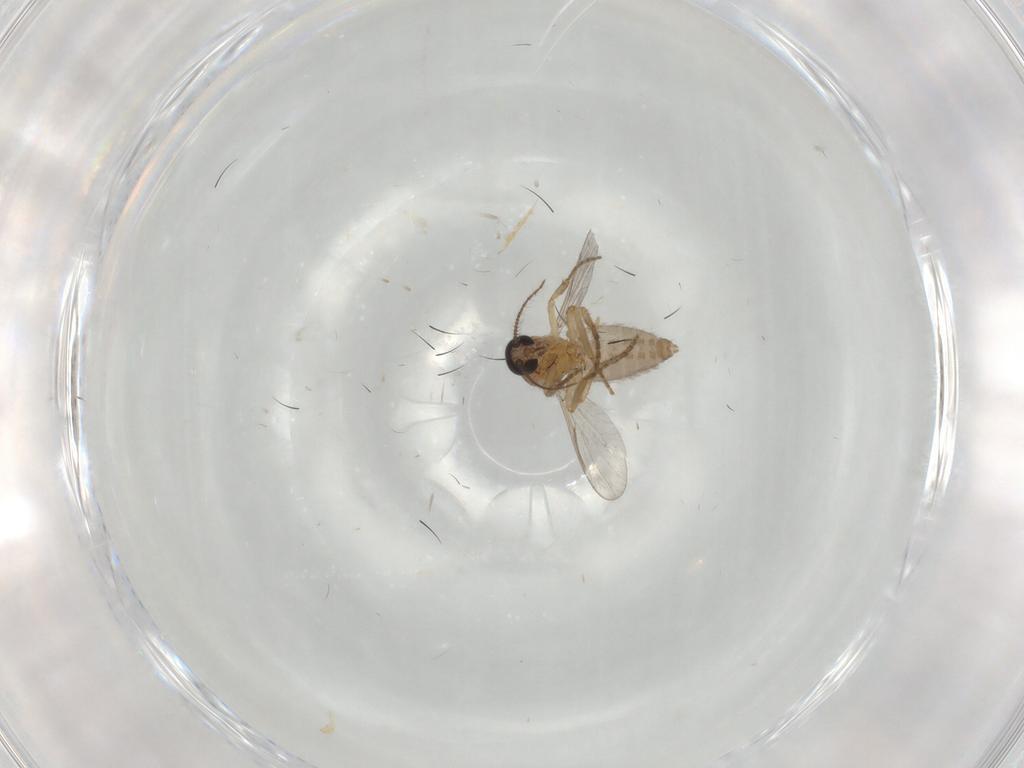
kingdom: Animalia
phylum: Arthropoda
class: Insecta
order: Diptera
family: Ceratopogonidae
